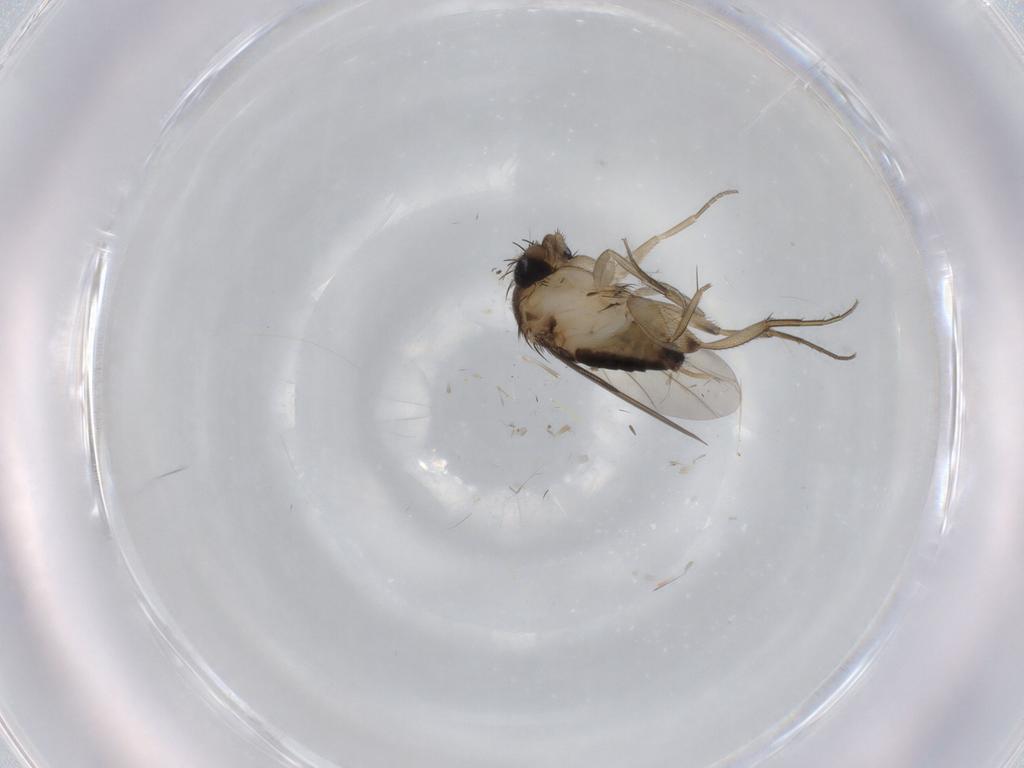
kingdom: Animalia
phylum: Arthropoda
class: Insecta
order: Diptera
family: Phoridae
